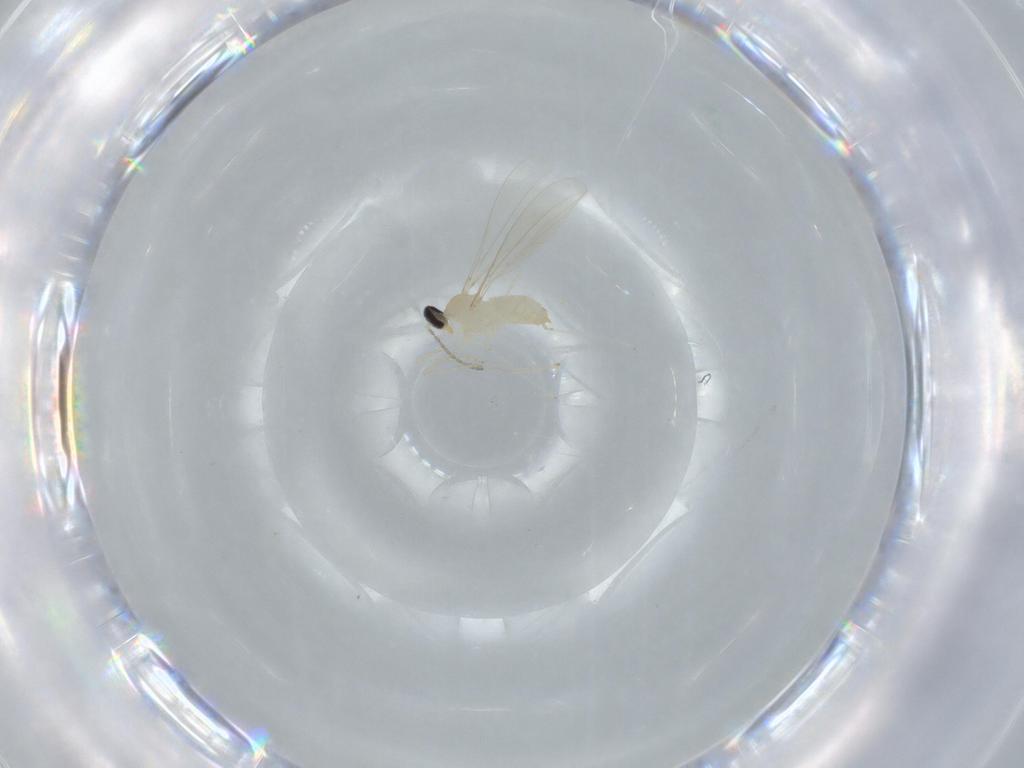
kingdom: Animalia
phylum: Arthropoda
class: Insecta
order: Diptera
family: Cecidomyiidae
